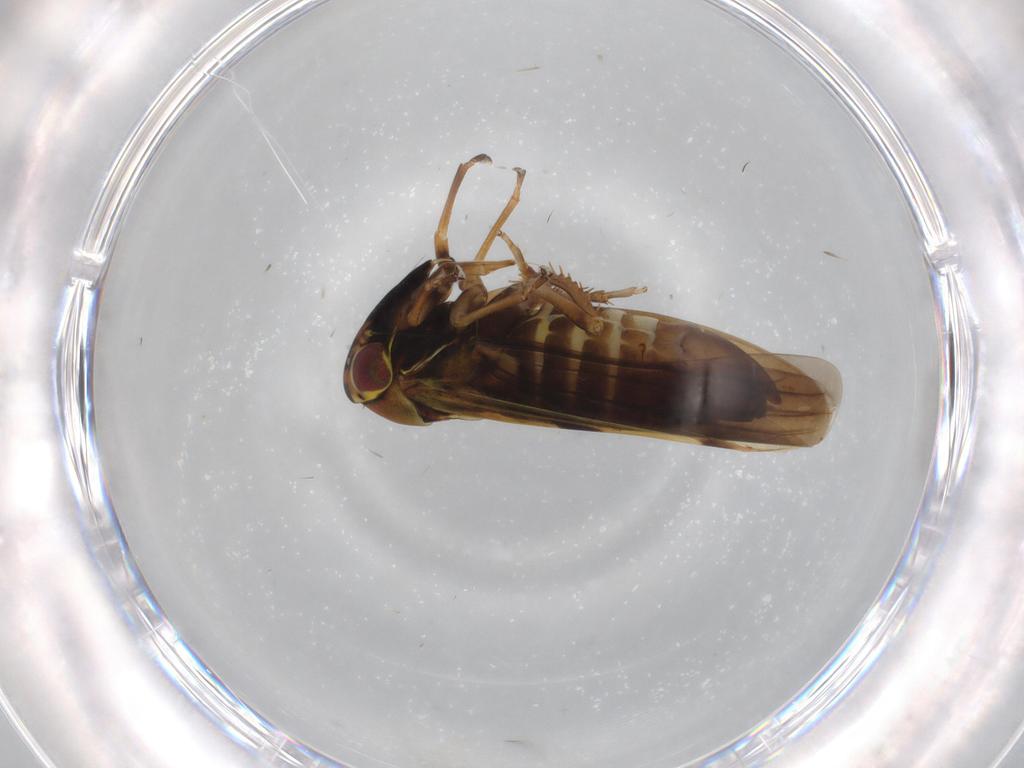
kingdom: Animalia
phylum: Arthropoda
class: Insecta
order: Hemiptera
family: Cicadellidae
